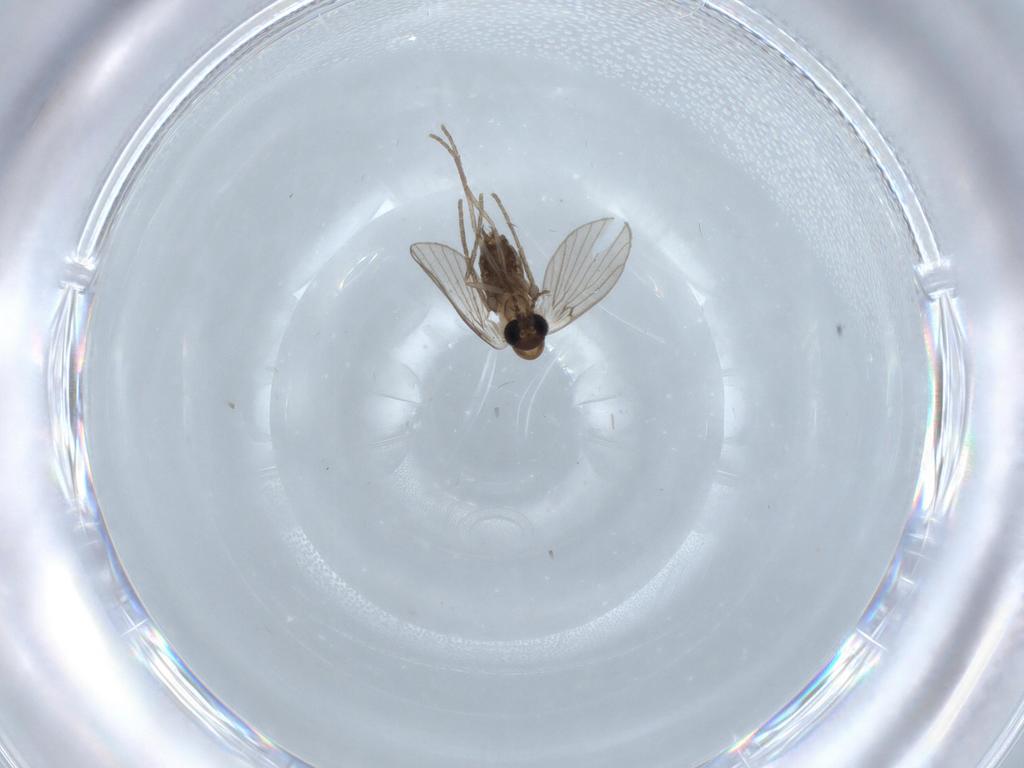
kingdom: Animalia
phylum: Arthropoda
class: Insecta
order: Diptera
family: Psychodidae
